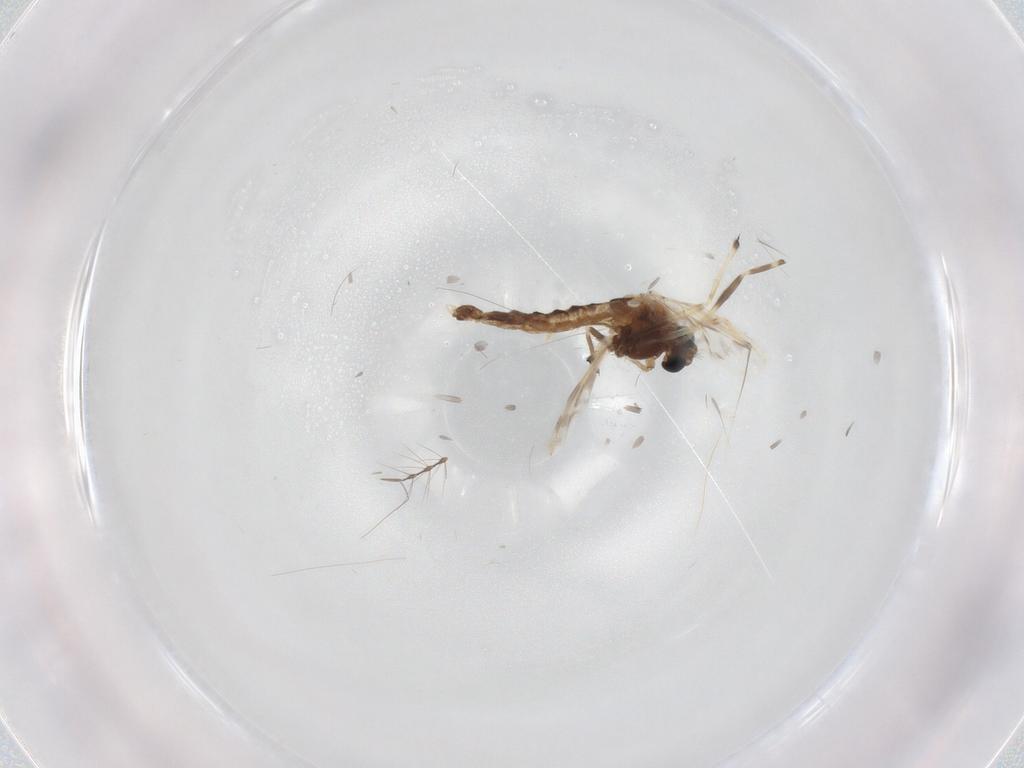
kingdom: Animalia
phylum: Arthropoda
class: Insecta
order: Diptera
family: Chironomidae
